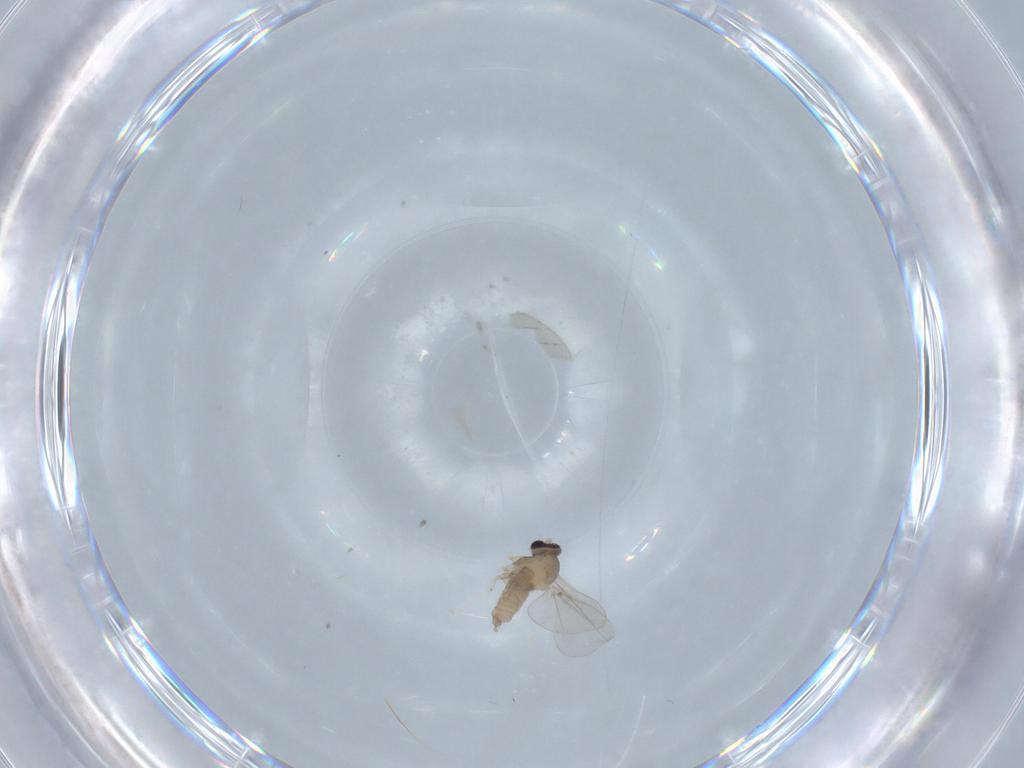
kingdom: Animalia
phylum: Arthropoda
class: Insecta
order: Diptera
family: Cecidomyiidae
